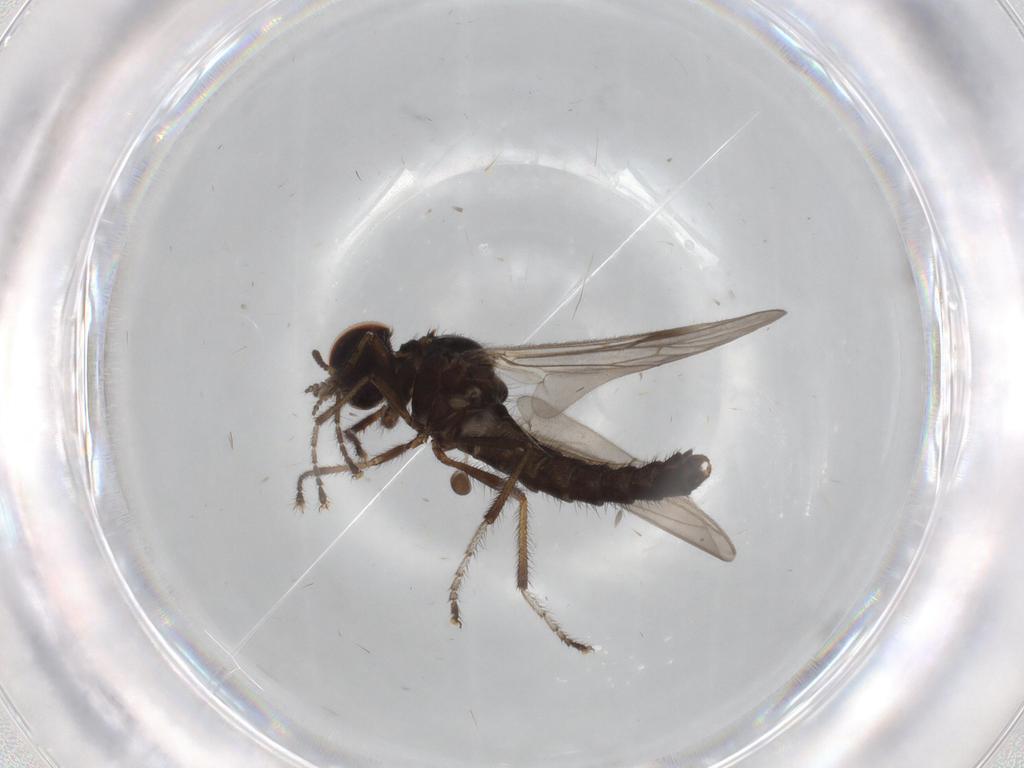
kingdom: Animalia
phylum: Arthropoda
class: Insecta
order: Diptera
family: Bibionidae
